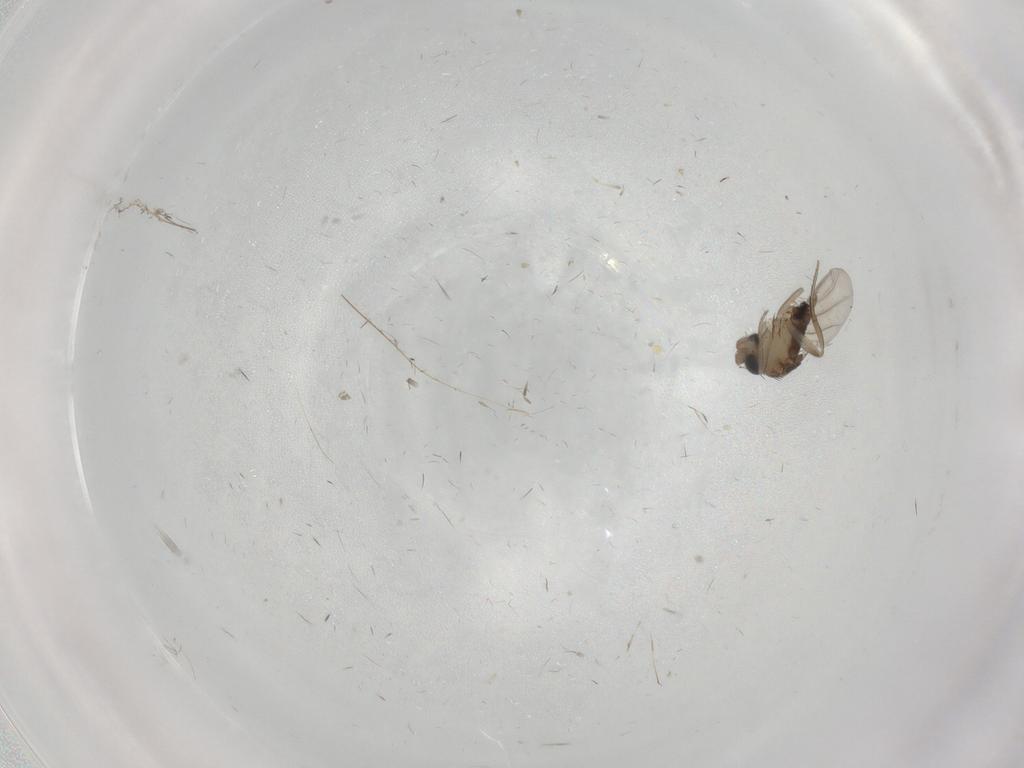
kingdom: Animalia
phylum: Arthropoda
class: Insecta
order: Diptera
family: Phoridae
